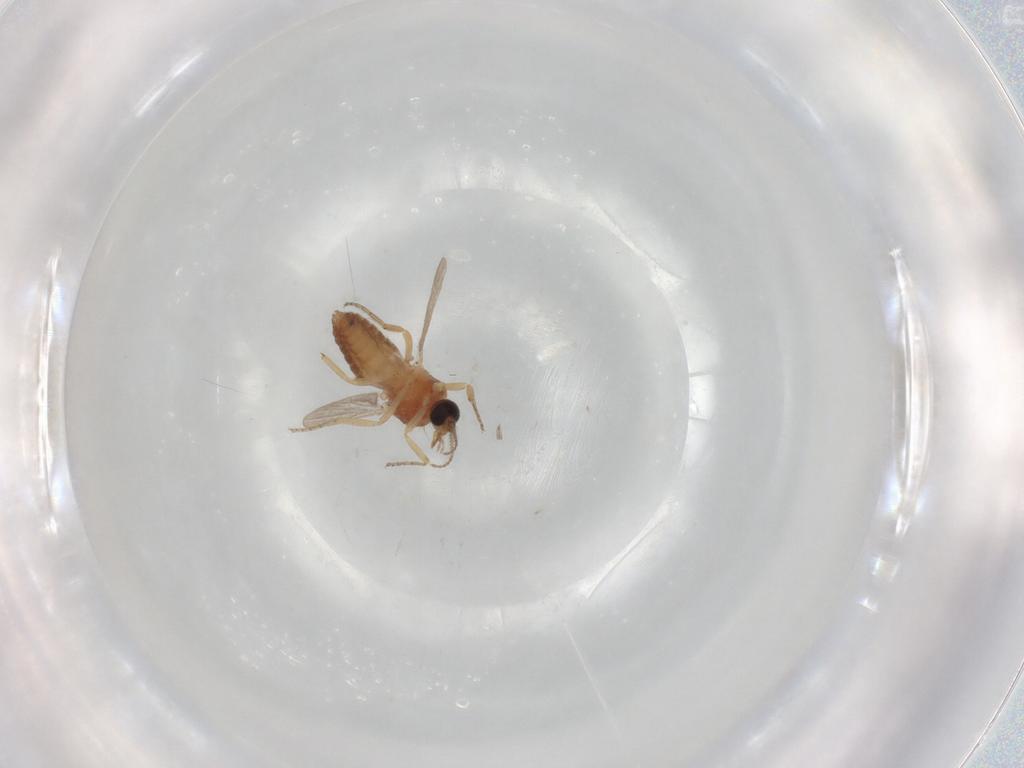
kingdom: Animalia
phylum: Arthropoda
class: Insecta
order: Diptera
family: Ceratopogonidae
